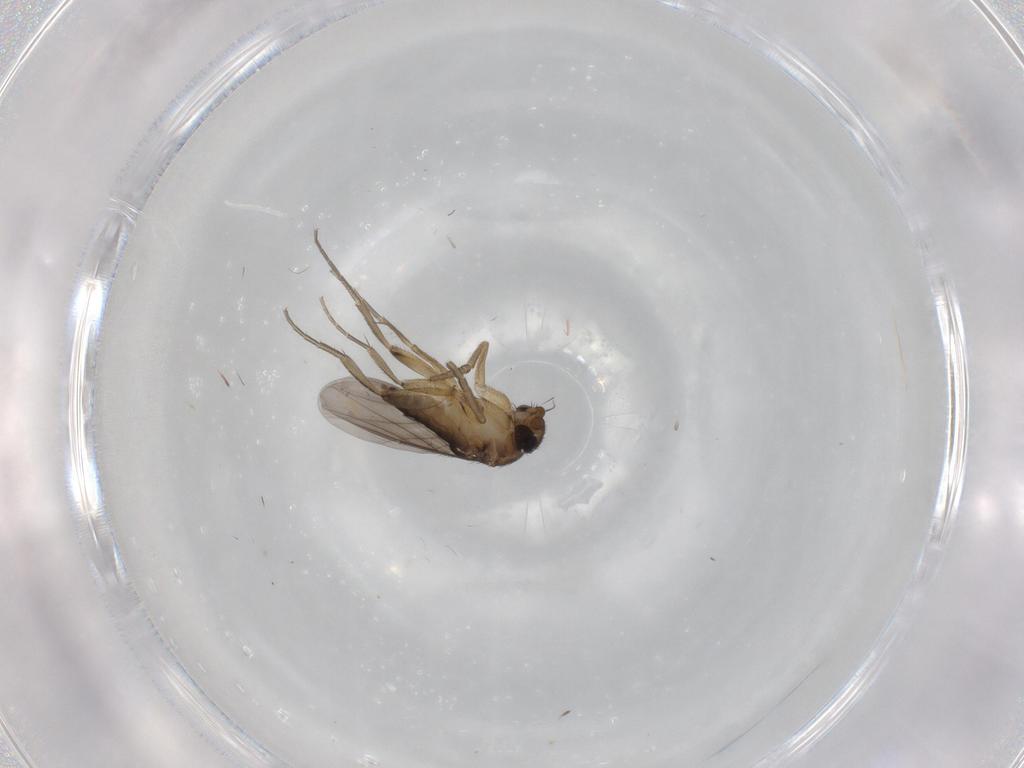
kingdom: Animalia
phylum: Arthropoda
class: Insecta
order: Diptera
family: Phoridae
